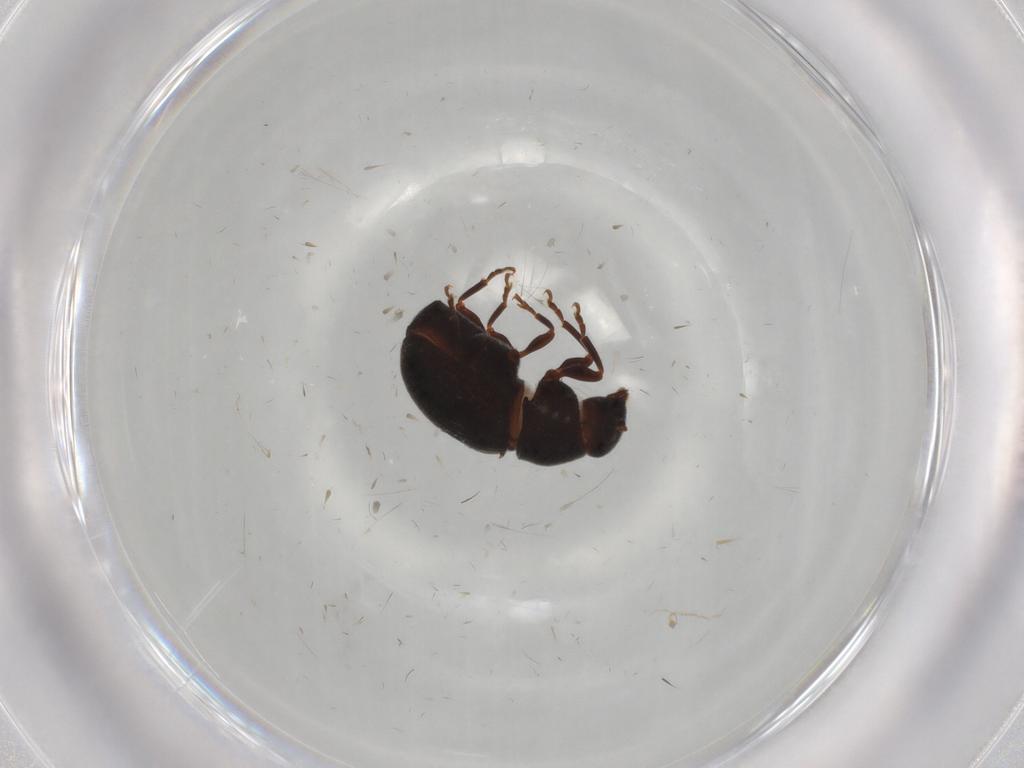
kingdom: Animalia
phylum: Arthropoda
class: Insecta
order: Coleoptera
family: Anthribidae
